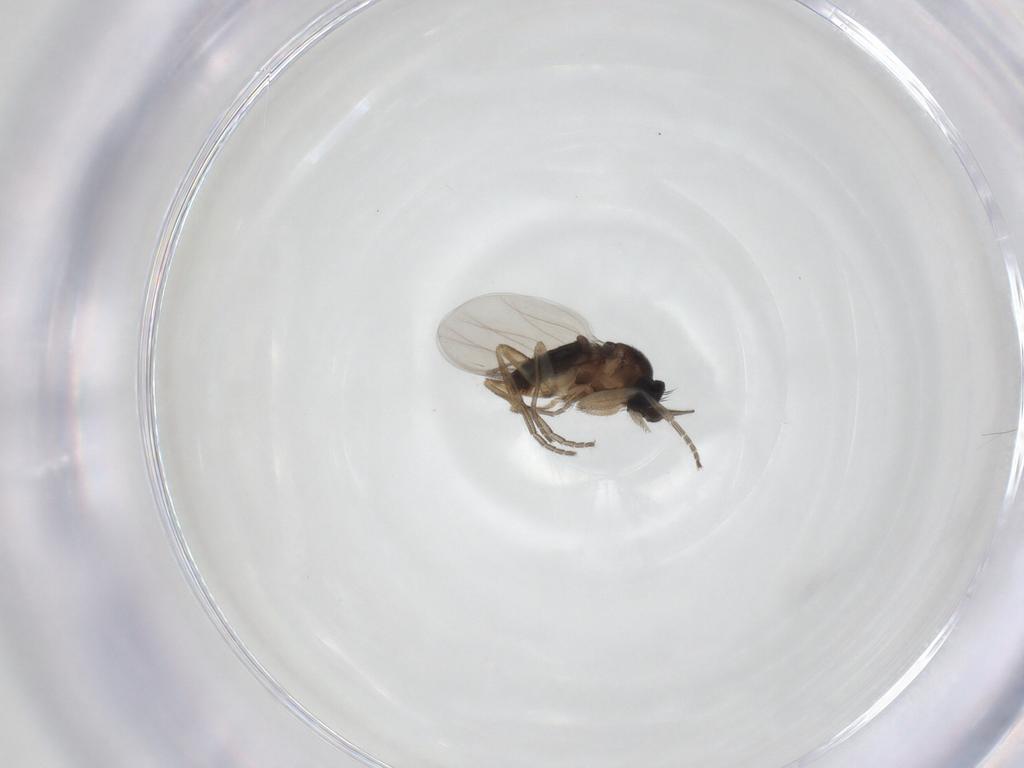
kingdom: Animalia
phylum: Arthropoda
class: Insecta
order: Diptera
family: Phoridae
